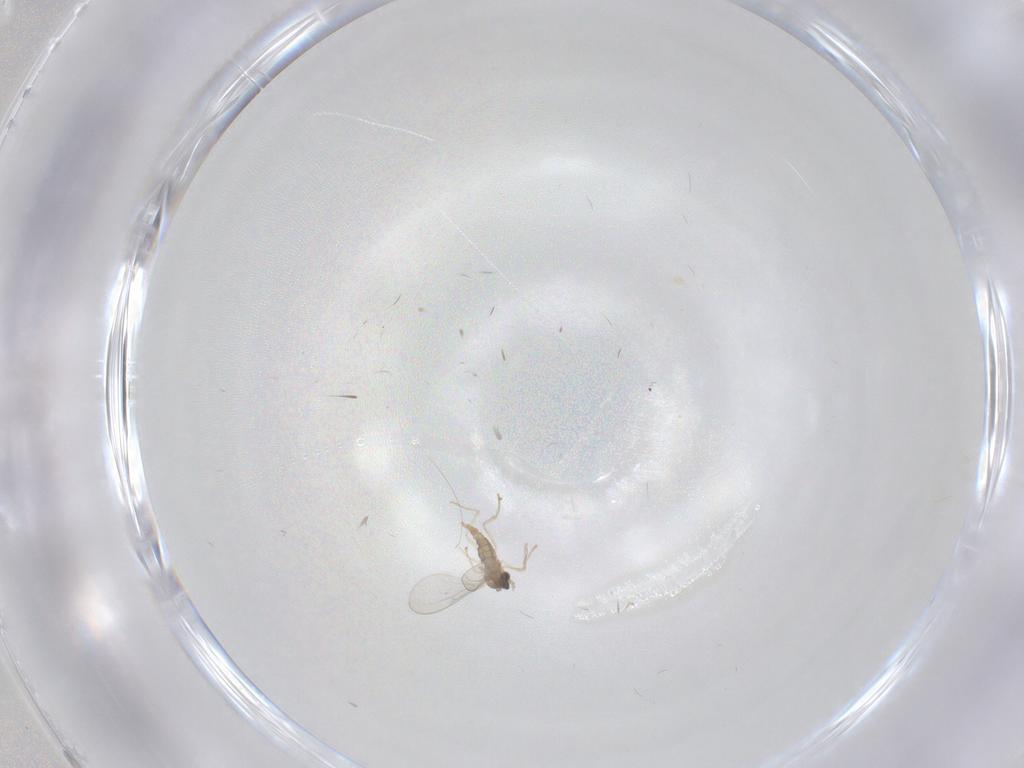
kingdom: Animalia
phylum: Arthropoda
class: Insecta
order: Diptera
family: Cecidomyiidae
